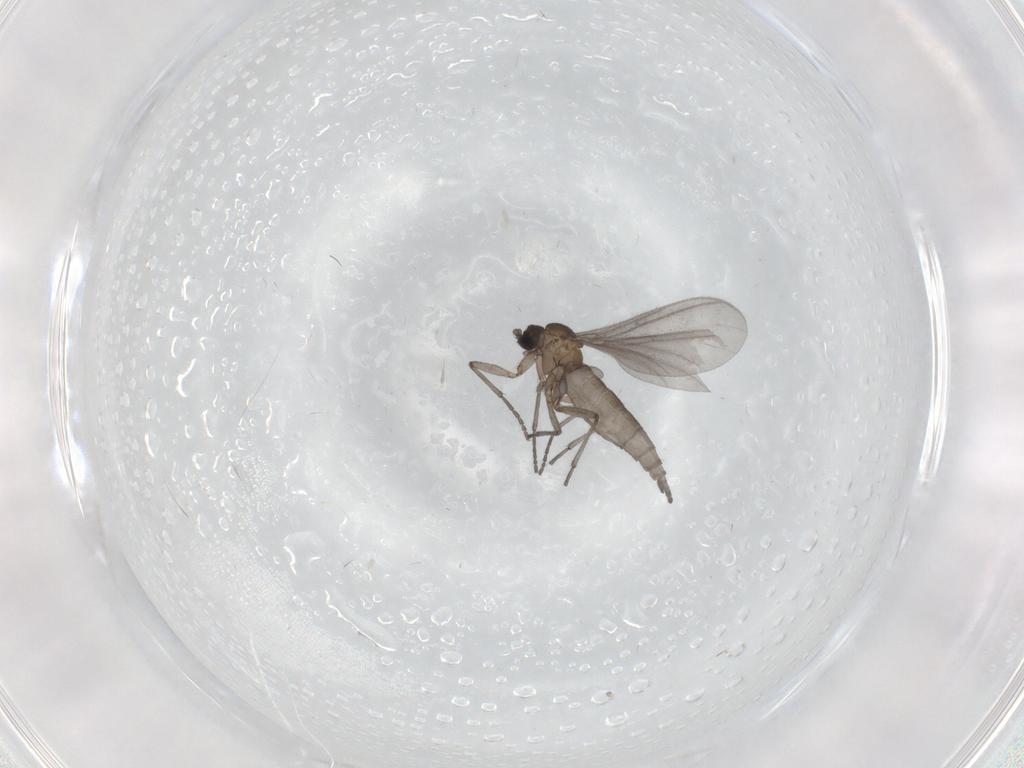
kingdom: Animalia
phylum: Arthropoda
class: Insecta
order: Diptera
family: Sciaridae
